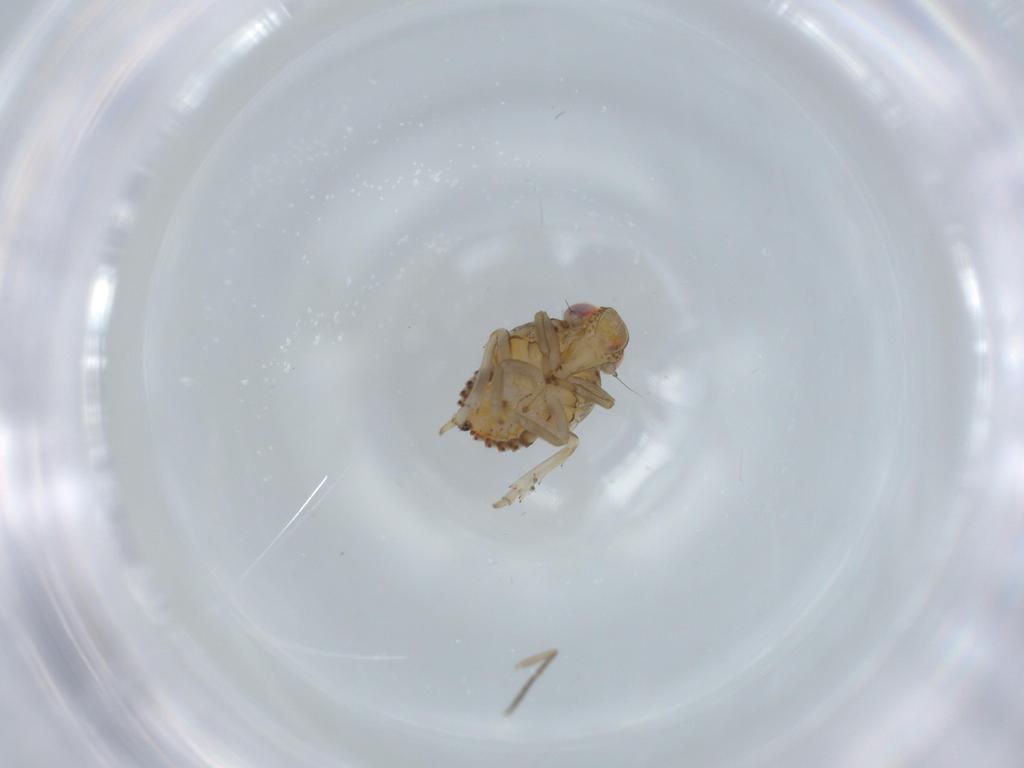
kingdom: Animalia
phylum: Arthropoda
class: Insecta
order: Hemiptera
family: Issidae
